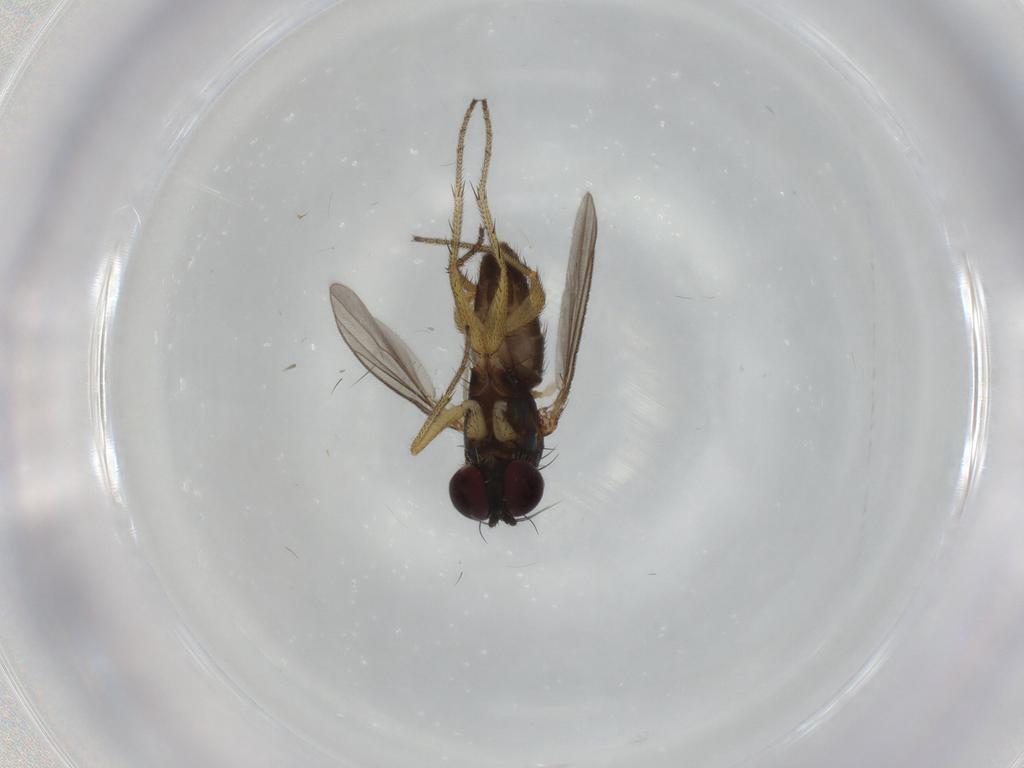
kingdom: Animalia
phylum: Arthropoda
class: Insecta
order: Diptera
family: Dolichopodidae
